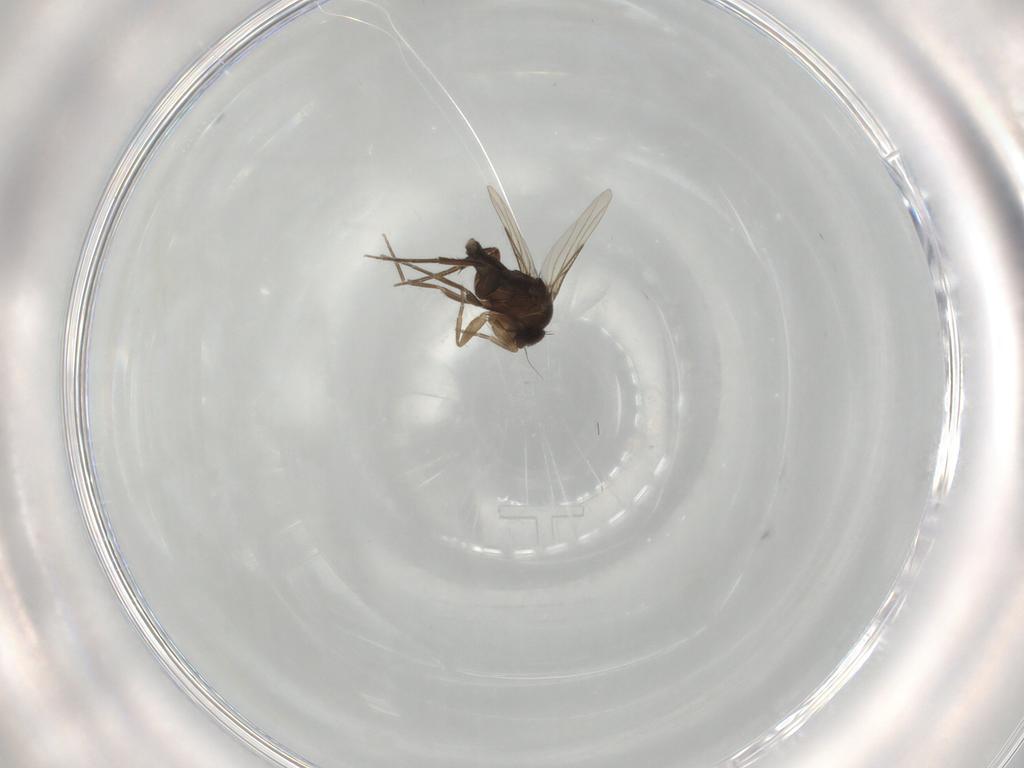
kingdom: Animalia
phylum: Arthropoda
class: Insecta
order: Diptera
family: Phoridae
